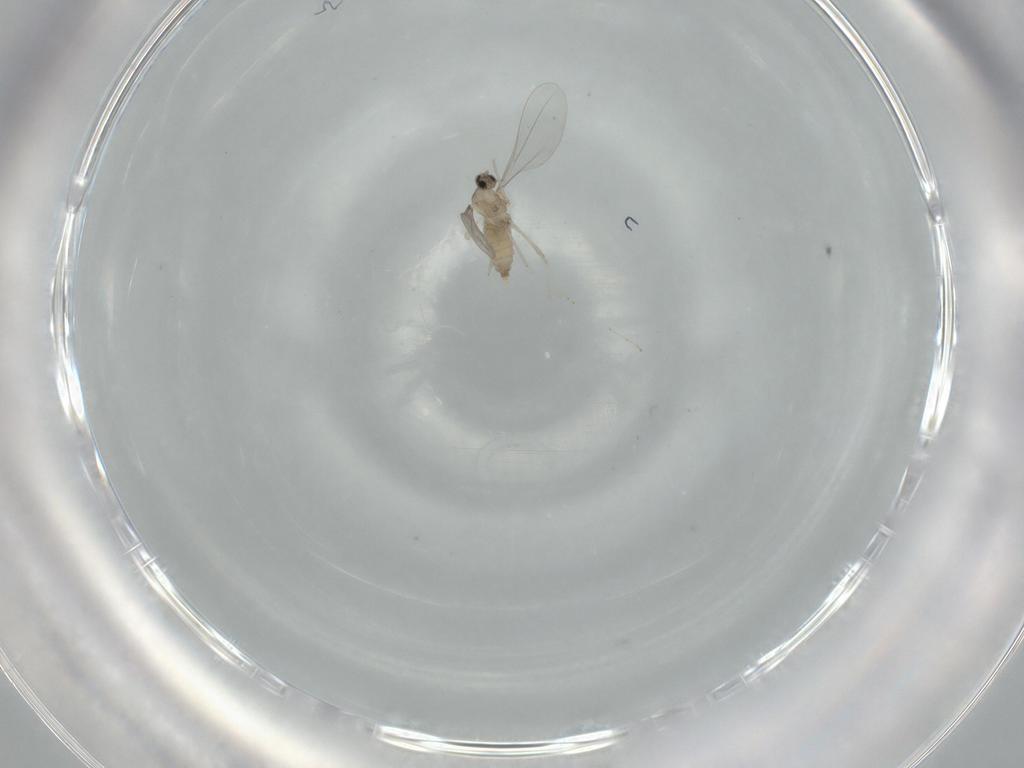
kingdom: Animalia
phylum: Arthropoda
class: Insecta
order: Diptera
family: Cecidomyiidae
